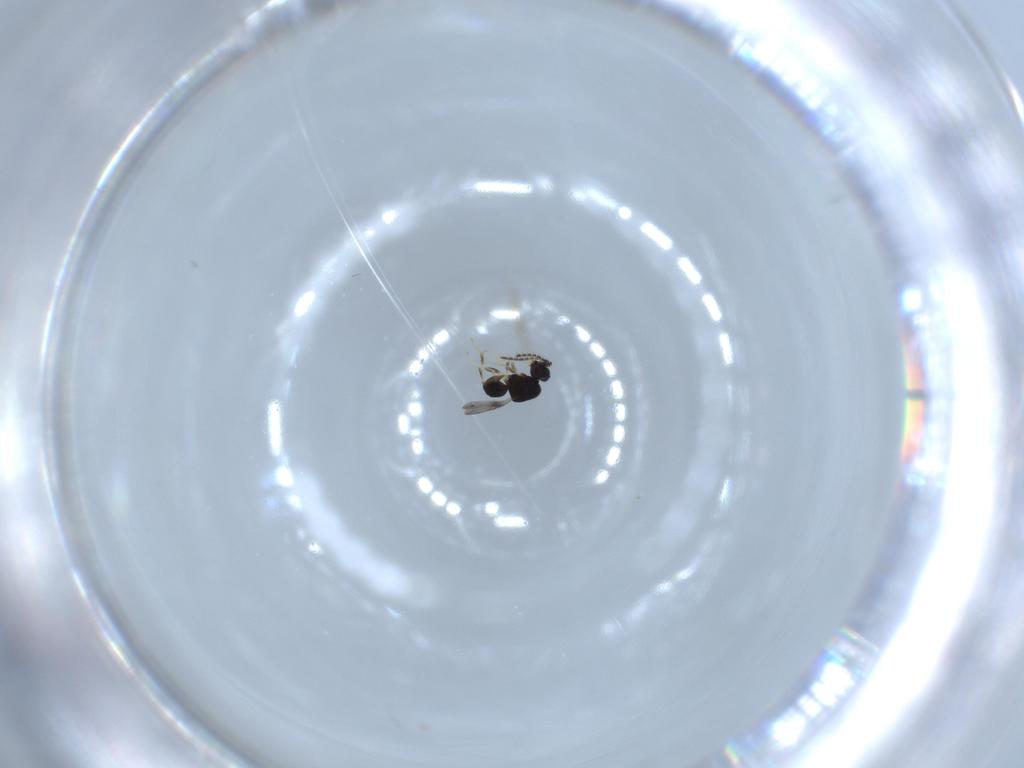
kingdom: Animalia
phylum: Arthropoda
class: Insecta
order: Hymenoptera
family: Ceraphronidae
